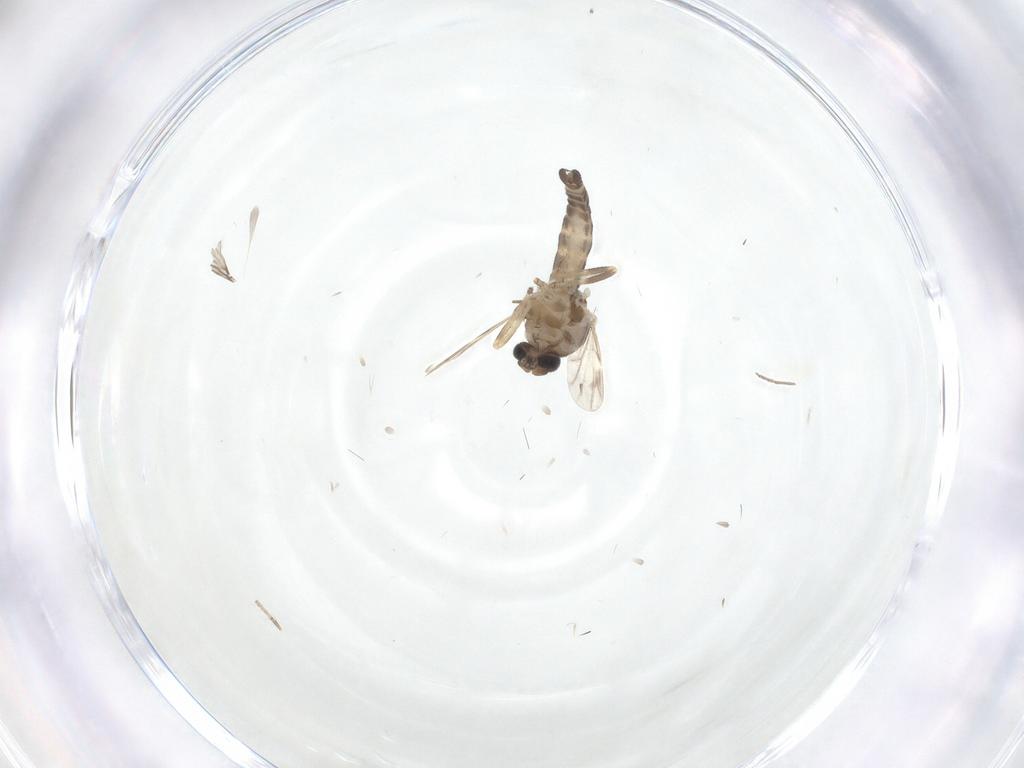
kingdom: Animalia
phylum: Arthropoda
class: Insecta
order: Diptera
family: Ceratopogonidae
